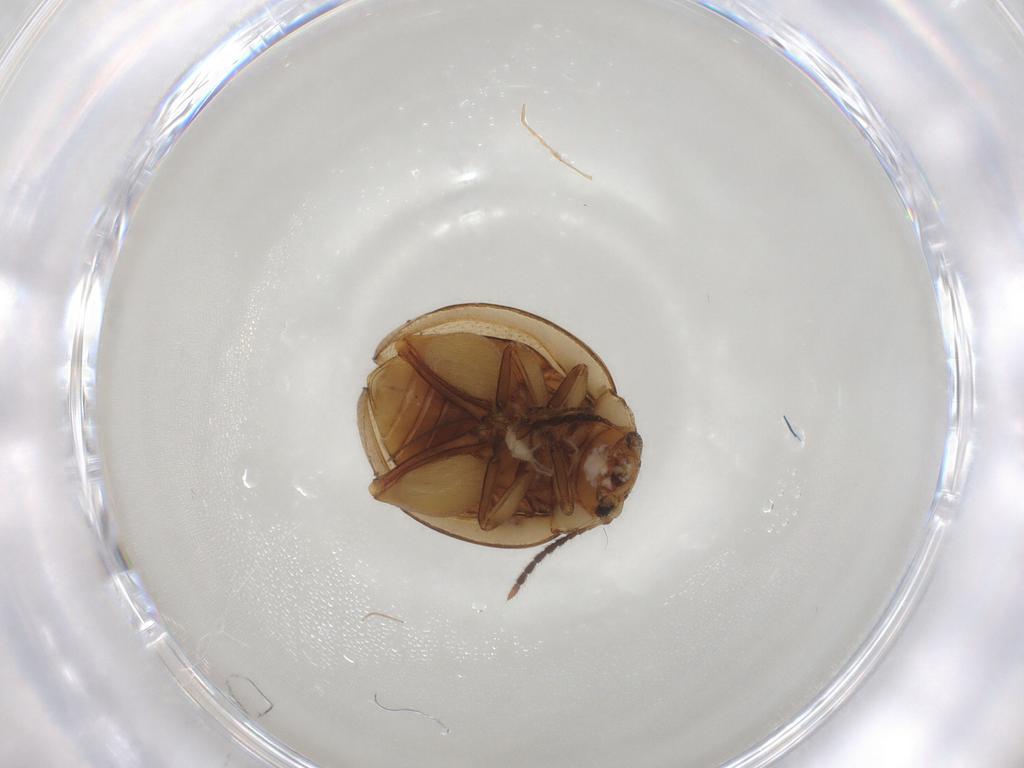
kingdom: Animalia
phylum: Arthropoda
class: Insecta
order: Coleoptera
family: Chrysomelidae
